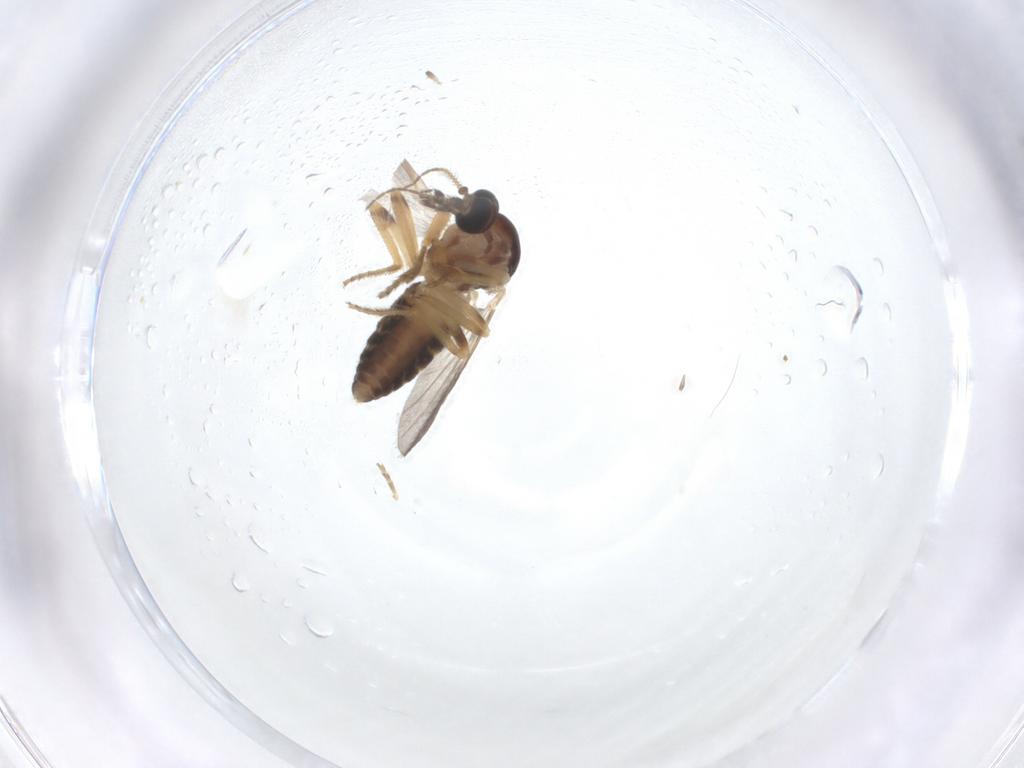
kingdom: Animalia
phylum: Arthropoda
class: Insecta
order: Diptera
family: Ceratopogonidae
